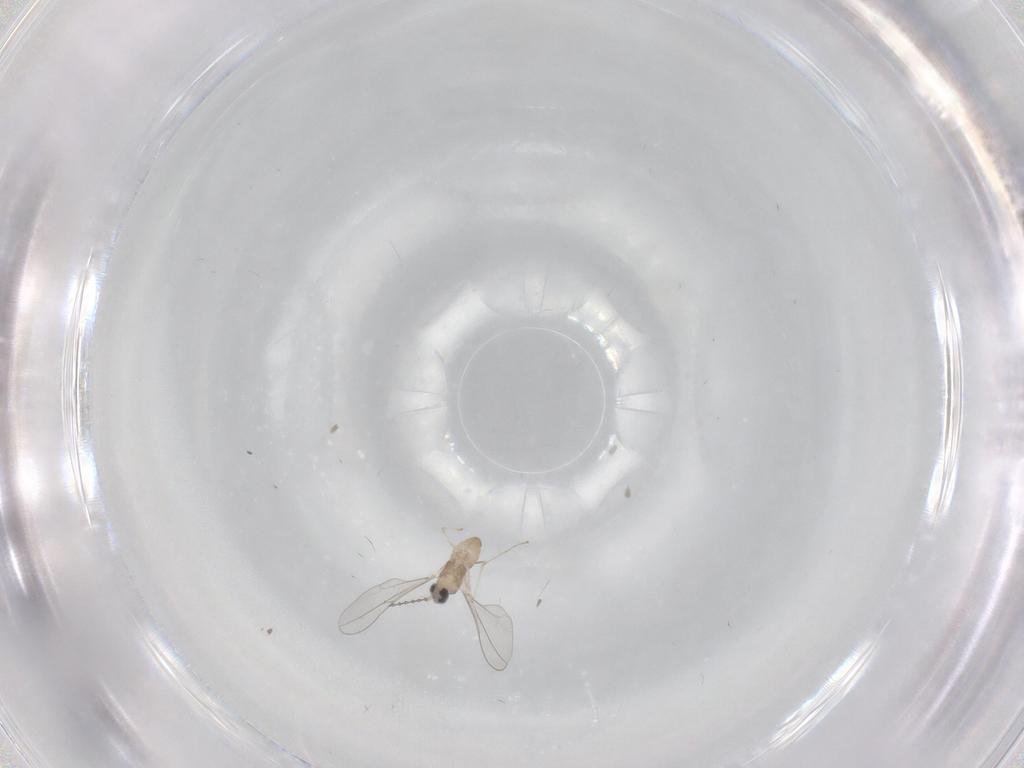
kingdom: Animalia
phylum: Arthropoda
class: Insecta
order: Diptera
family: Cecidomyiidae
